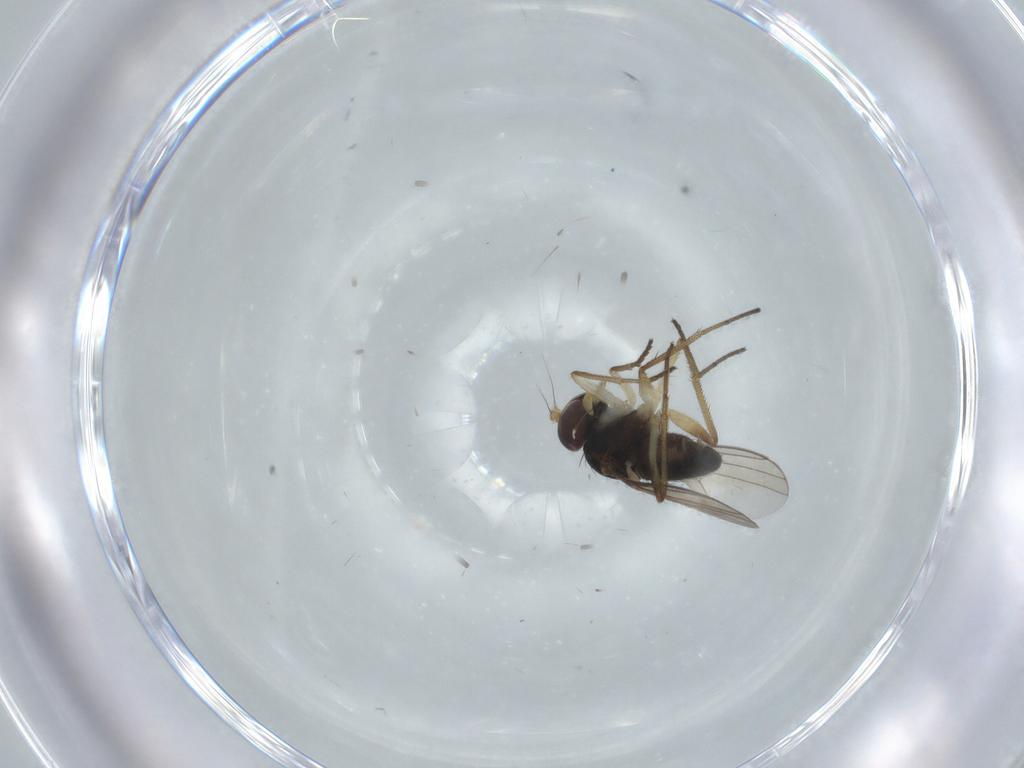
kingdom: Animalia
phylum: Arthropoda
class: Insecta
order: Diptera
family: Dolichopodidae
